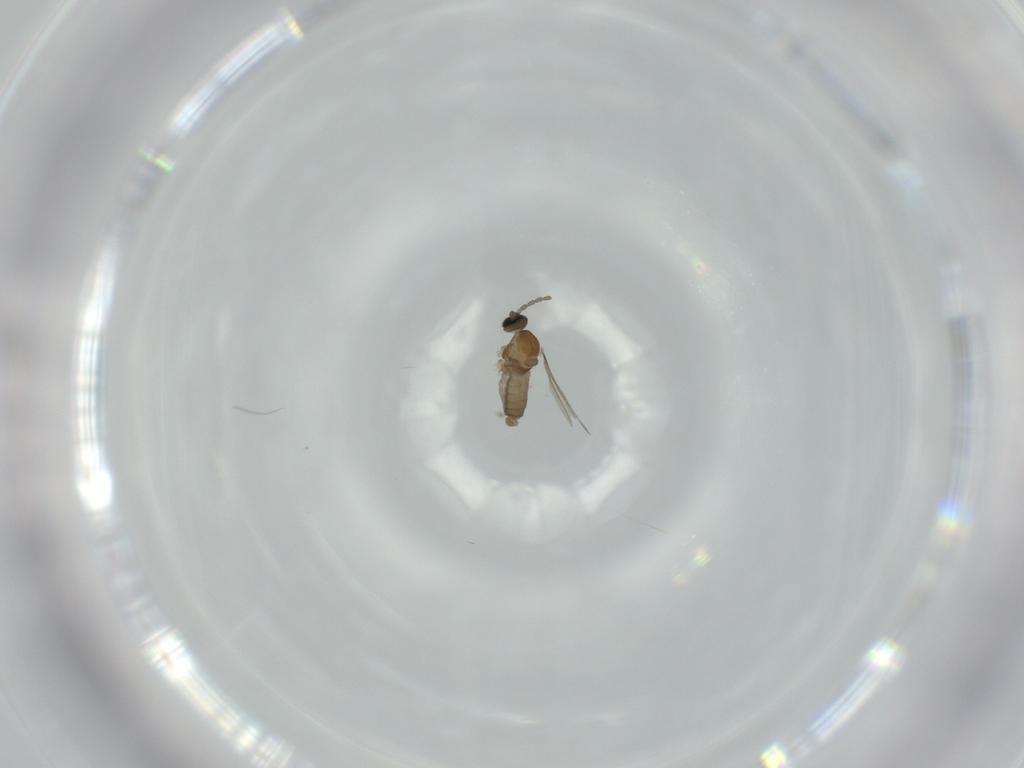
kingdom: Animalia
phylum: Arthropoda
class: Insecta
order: Diptera
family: Cecidomyiidae
